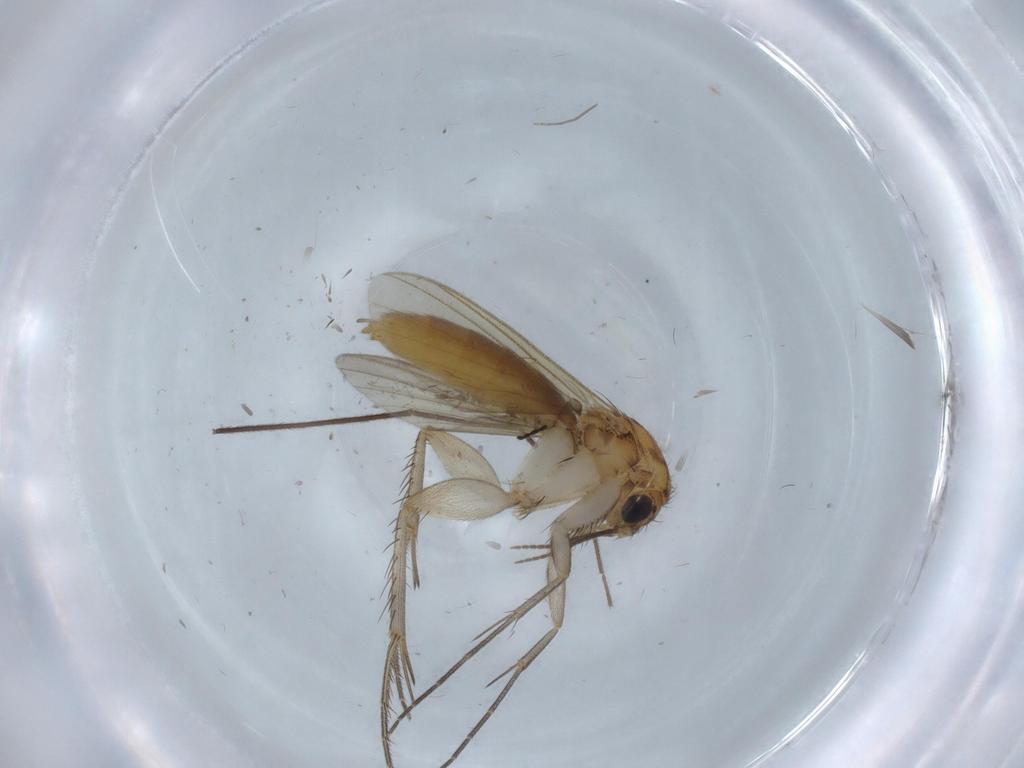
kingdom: Animalia
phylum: Arthropoda
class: Insecta
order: Diptera
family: Mycetophilidae
